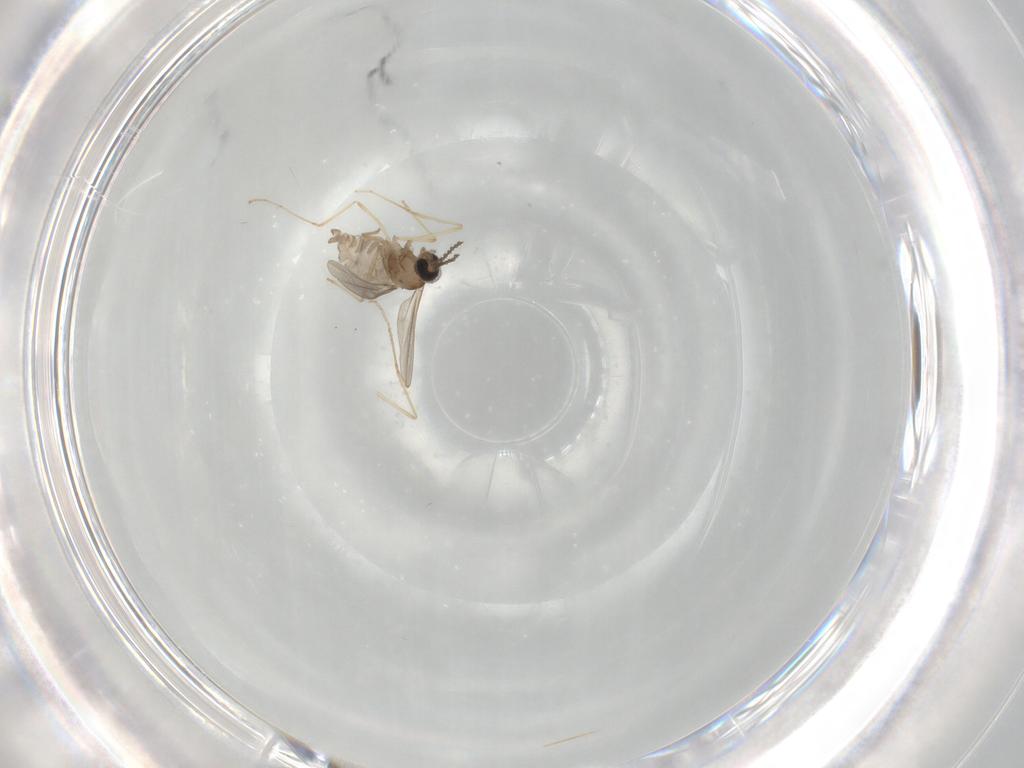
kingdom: Animalia
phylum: Arthropoda
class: Insecta
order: Diptera
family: Cecidomyiidae
